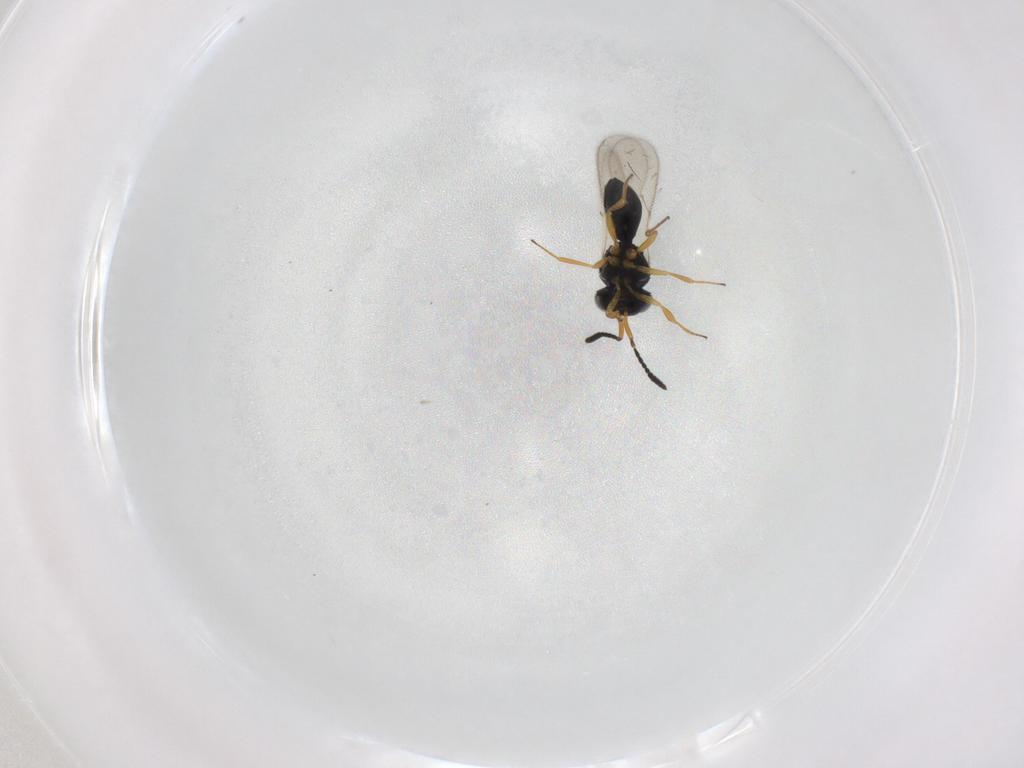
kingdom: Animalia
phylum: Arthropoda
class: Insecta
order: Hymenoptera
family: Scelionidae
